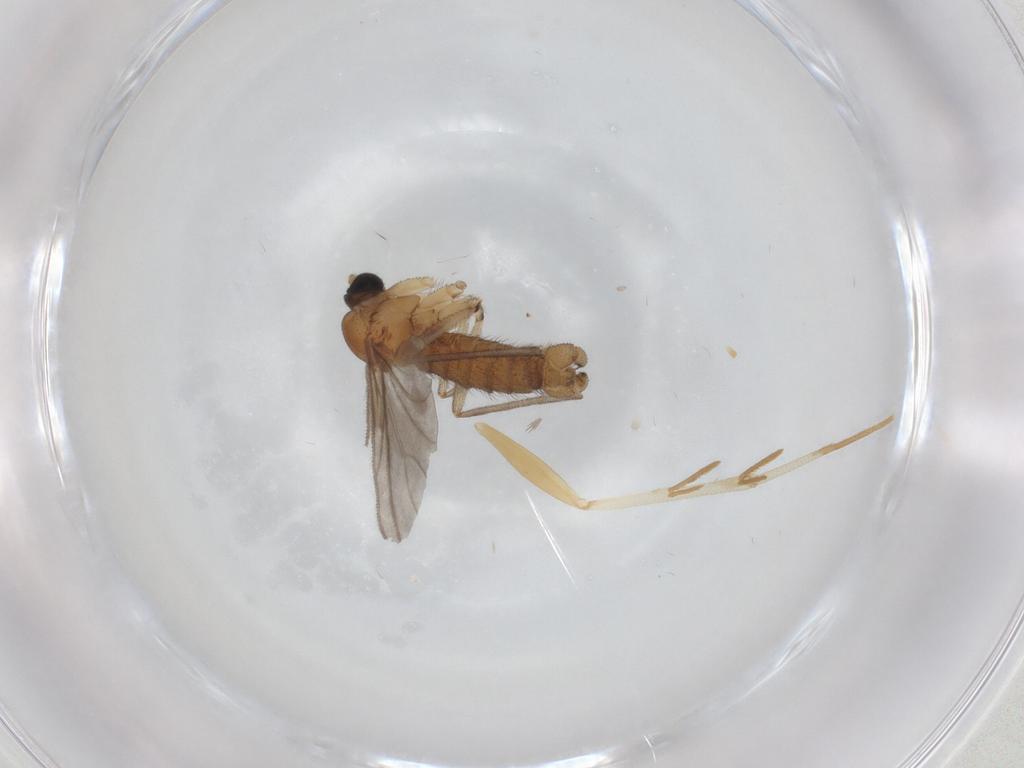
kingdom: Animalia
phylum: Arthropoda
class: Insecta
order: Diptera
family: Sciaridae
